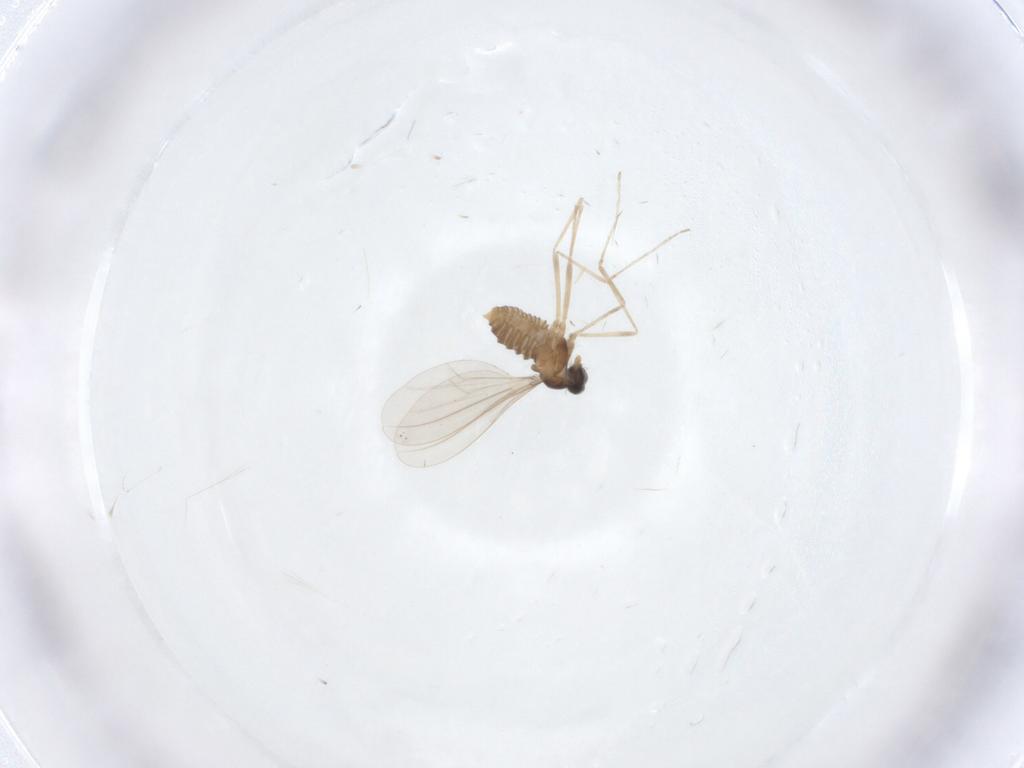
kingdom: Animalia
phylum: Arthropoda
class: Insecta
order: Diptera
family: Cecidomyiidae
